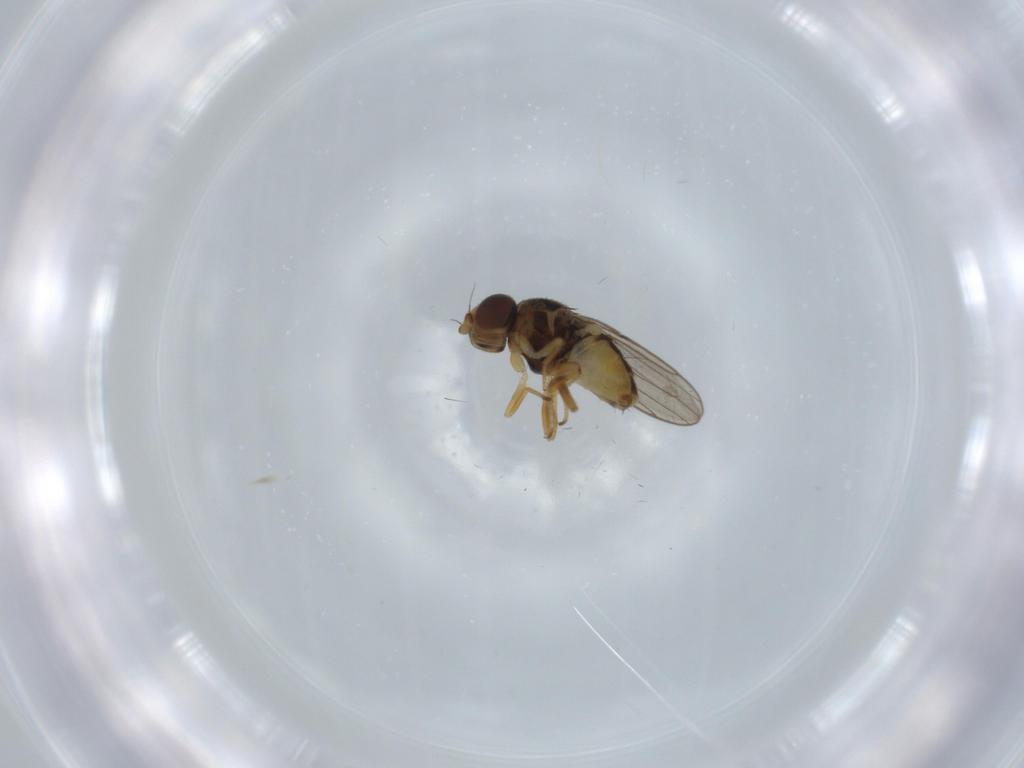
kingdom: Animalia
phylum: Arthropoda
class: Insecta
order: Diptera
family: Chloropidae
